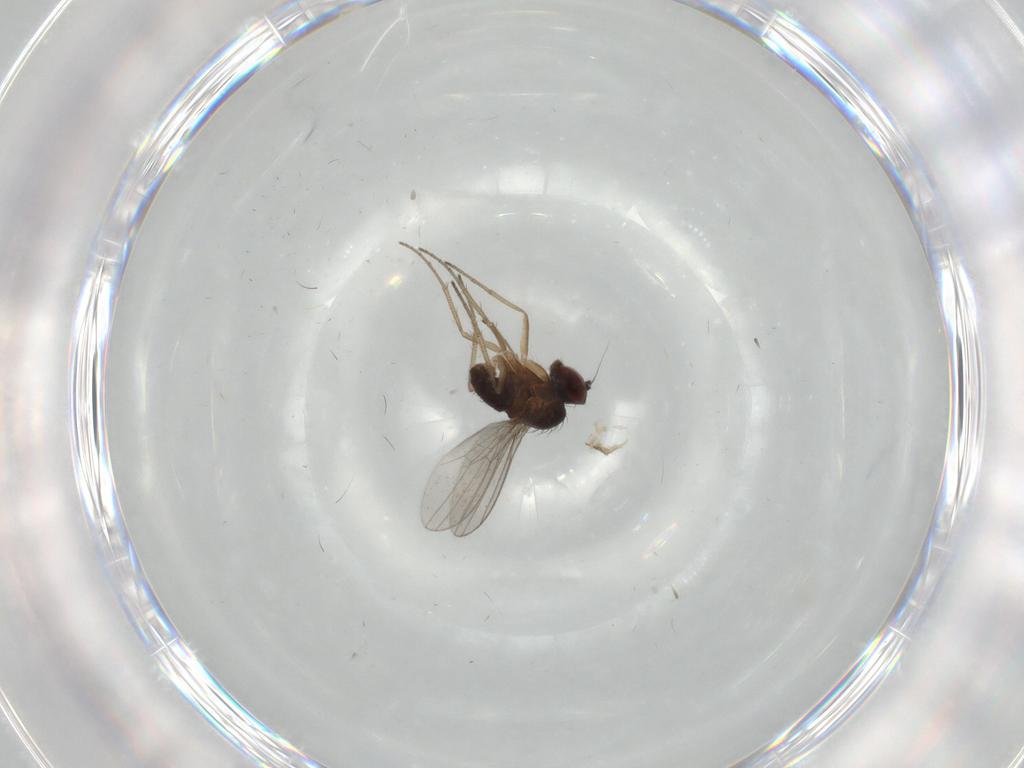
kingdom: Animalia
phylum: Arthropoda
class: Insecta
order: Diptera
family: Dolichopodidae
